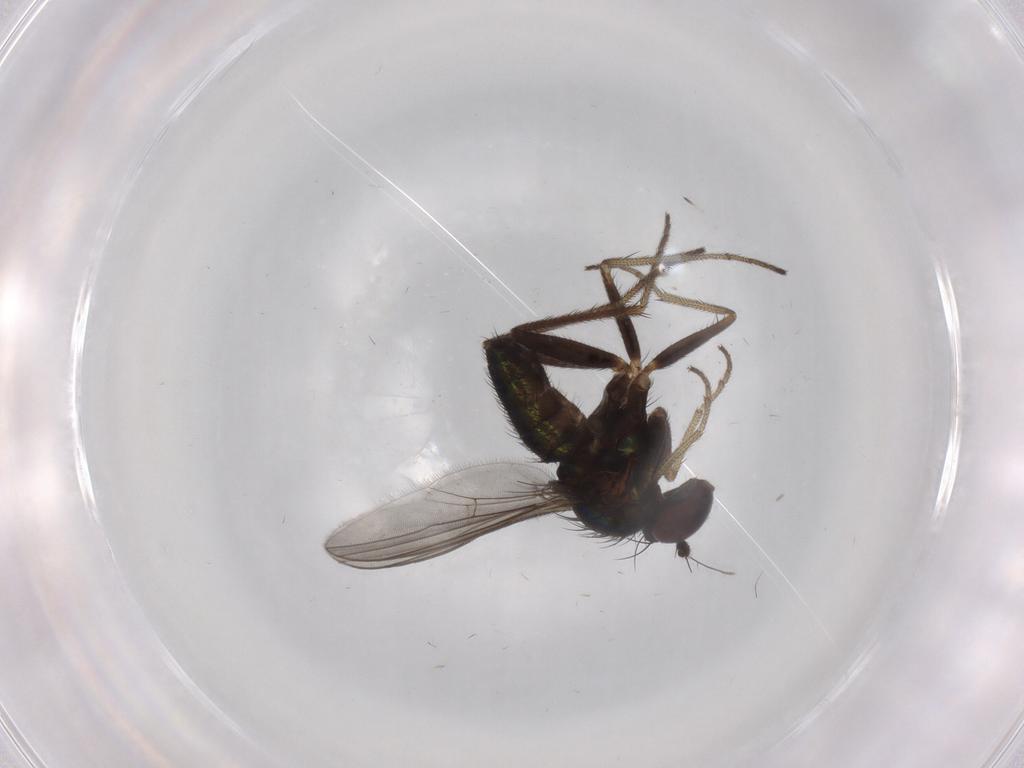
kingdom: Animalia
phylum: Arthropoda
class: Insecta
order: Diptera
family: Dolichopodidae
